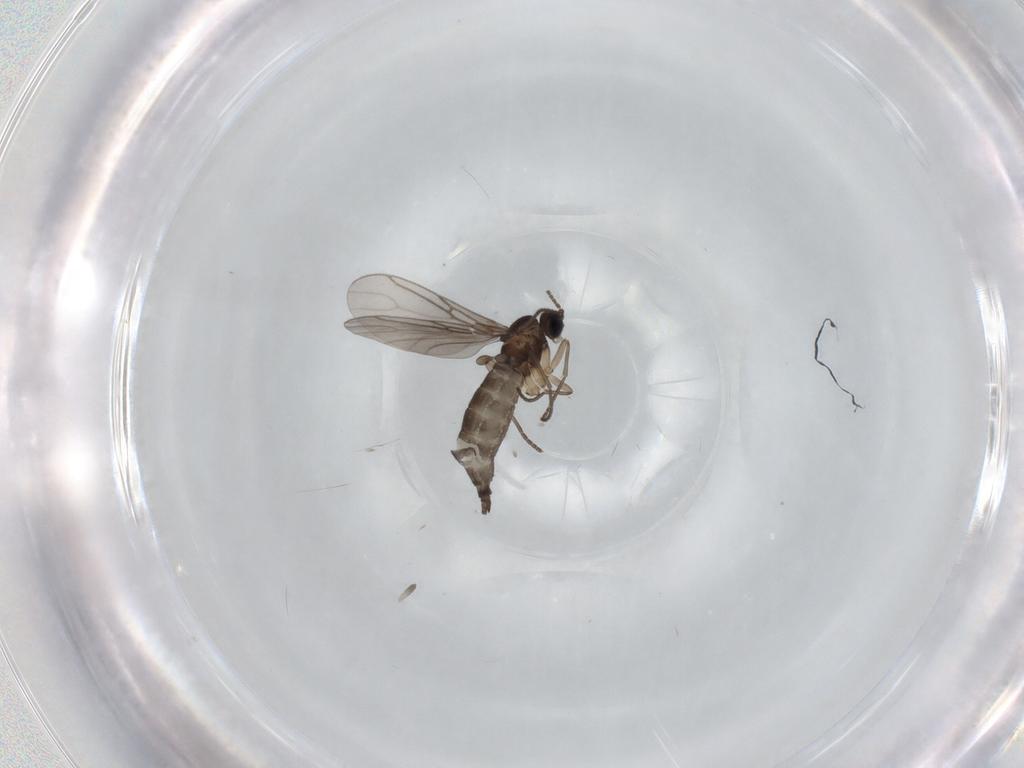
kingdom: Animalia
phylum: Arthropoda
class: Insecta
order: Diptera
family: Sciaridae
